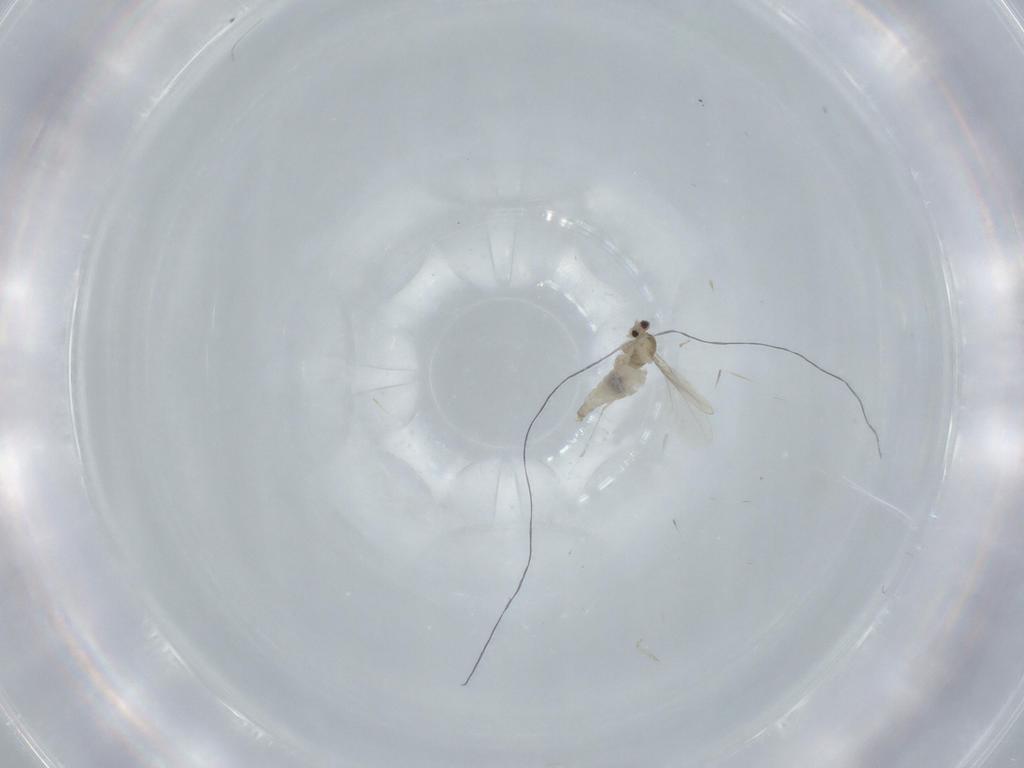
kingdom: Animalia
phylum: Arthropoda
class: Insecta
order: Diptera
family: Cecidomyiidae
